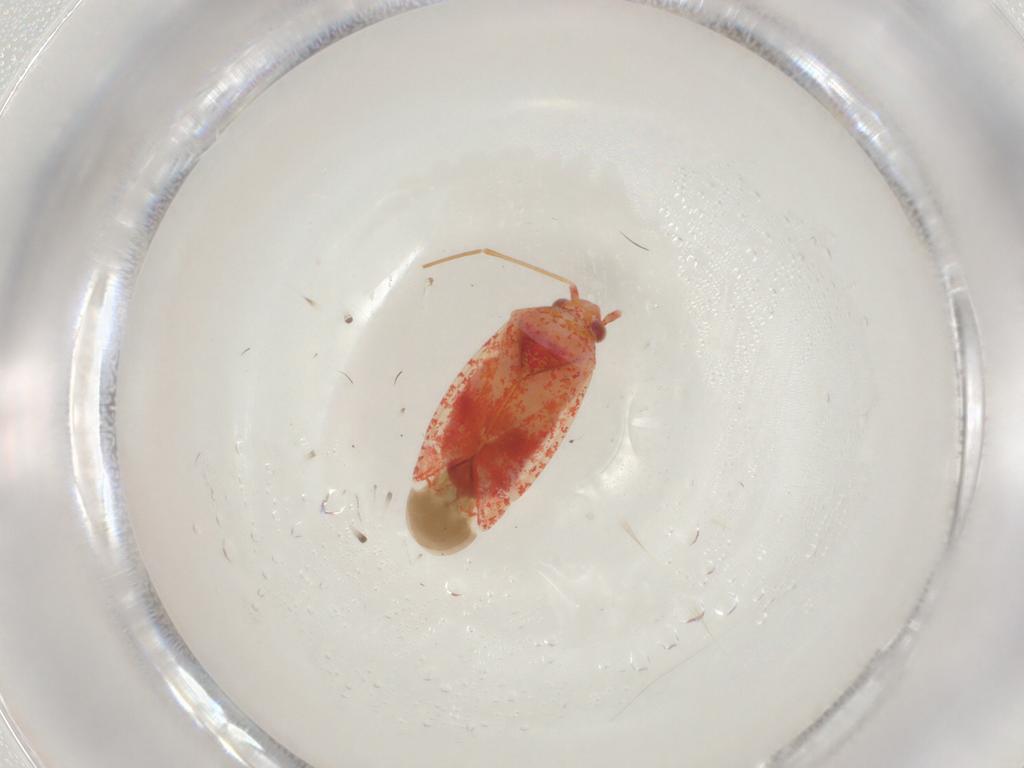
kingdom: Animalia
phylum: Arthropoda
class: Insecta
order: Hemiptera
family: Miridae
